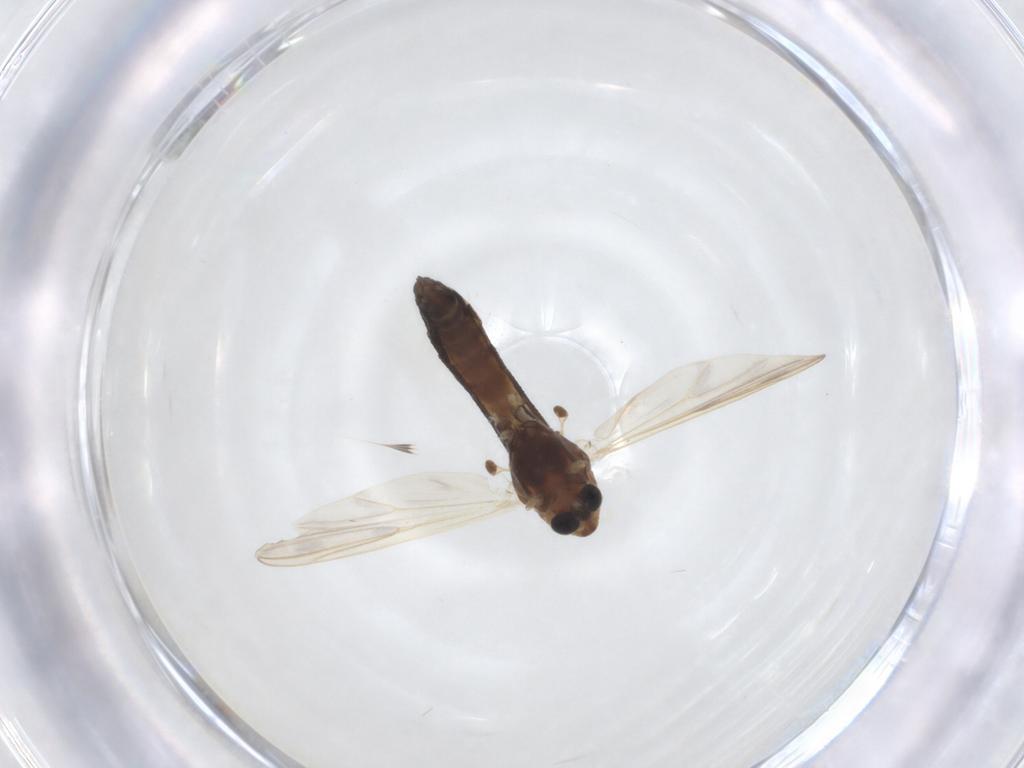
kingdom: Animalia
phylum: Arthropoda
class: Insecta
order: Diptera
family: Chironomidae
